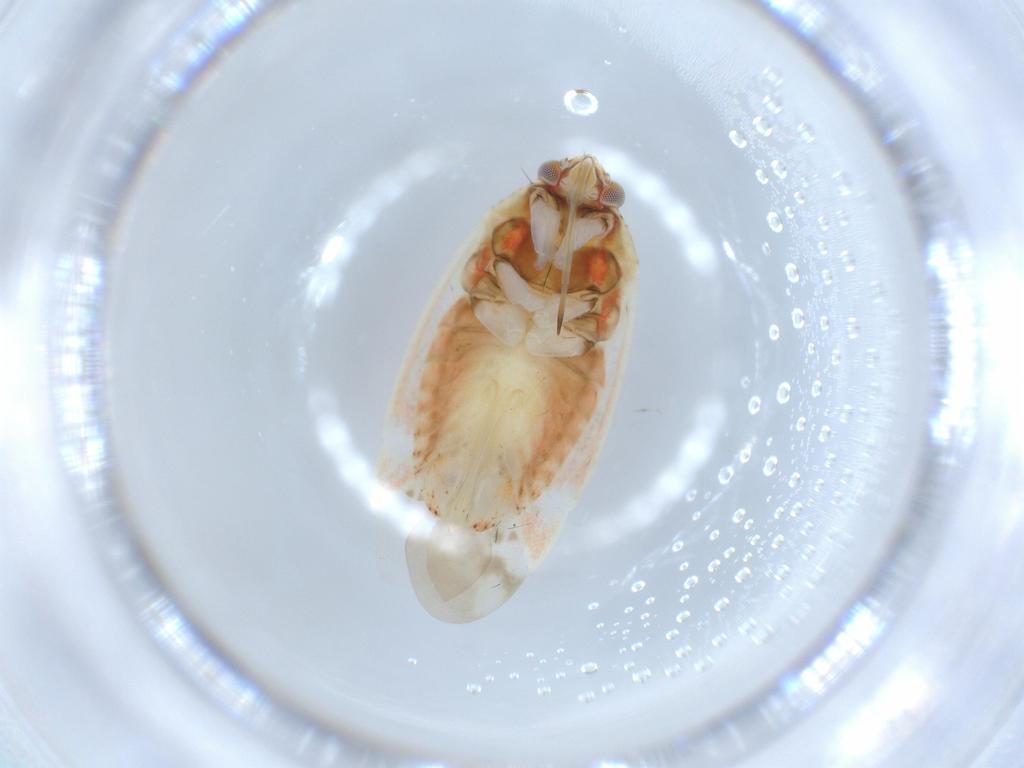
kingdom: Animalia
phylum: Arthropoda
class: Insecta
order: Hemiptera
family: Aphididae
